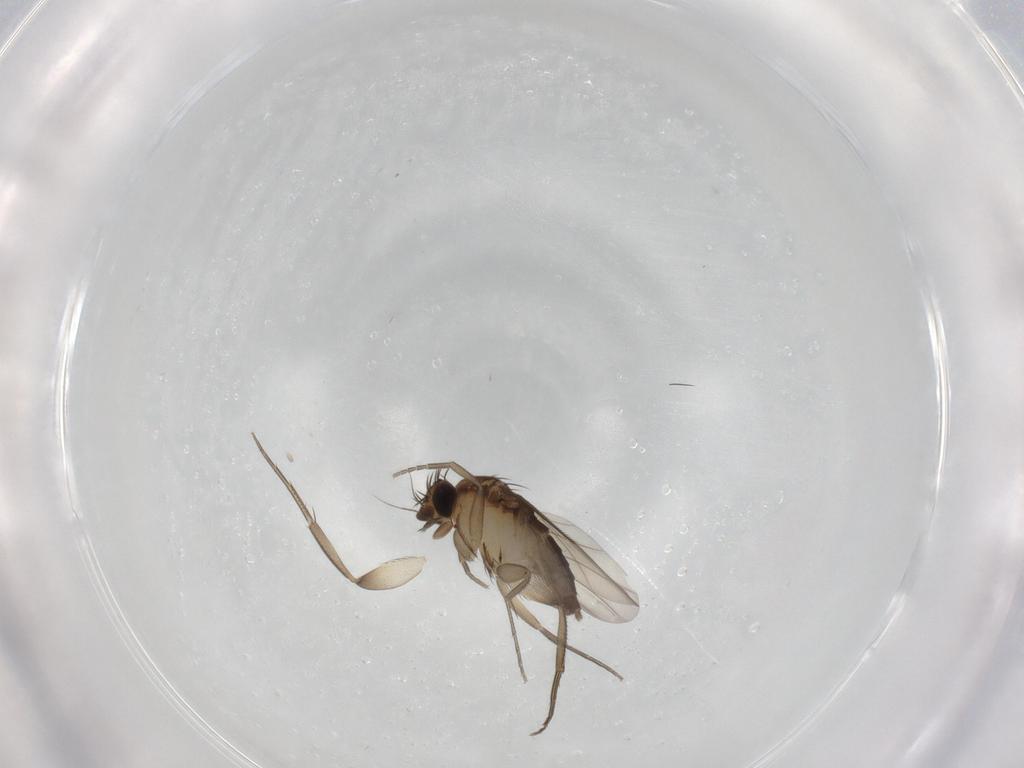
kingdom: Animalia
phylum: Arthropoda
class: Insecta
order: Diptera
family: Phoridae
